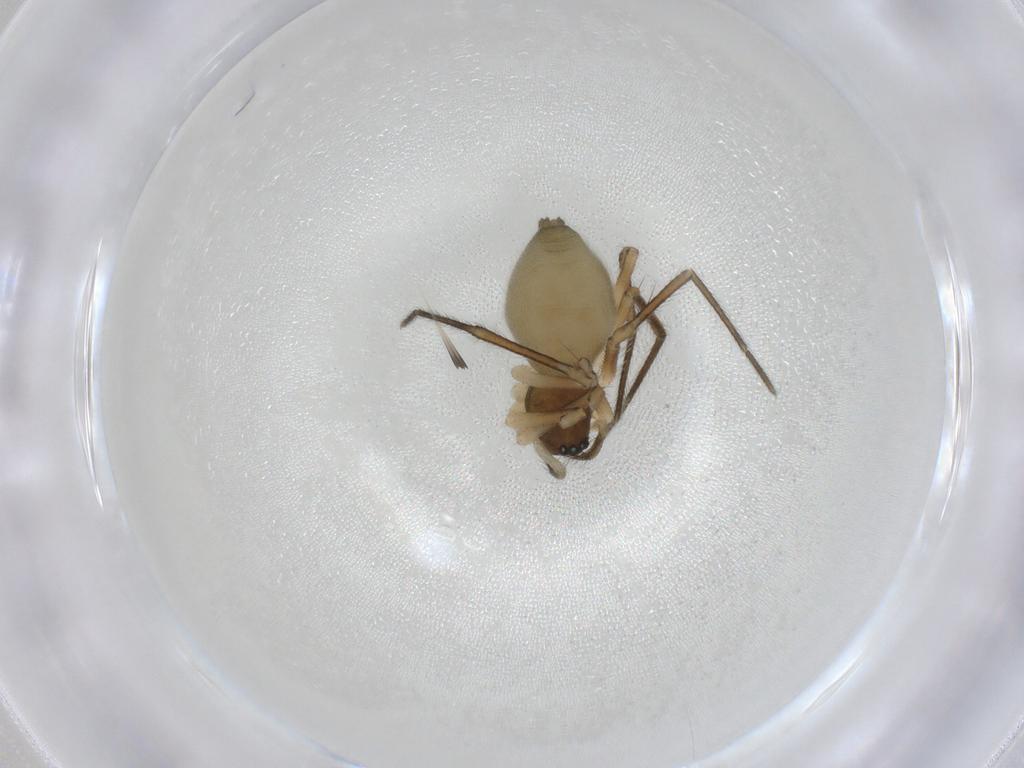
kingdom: Animalia
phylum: Arthropoda
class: Arachnida
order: Araneae
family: Linyphiidae
